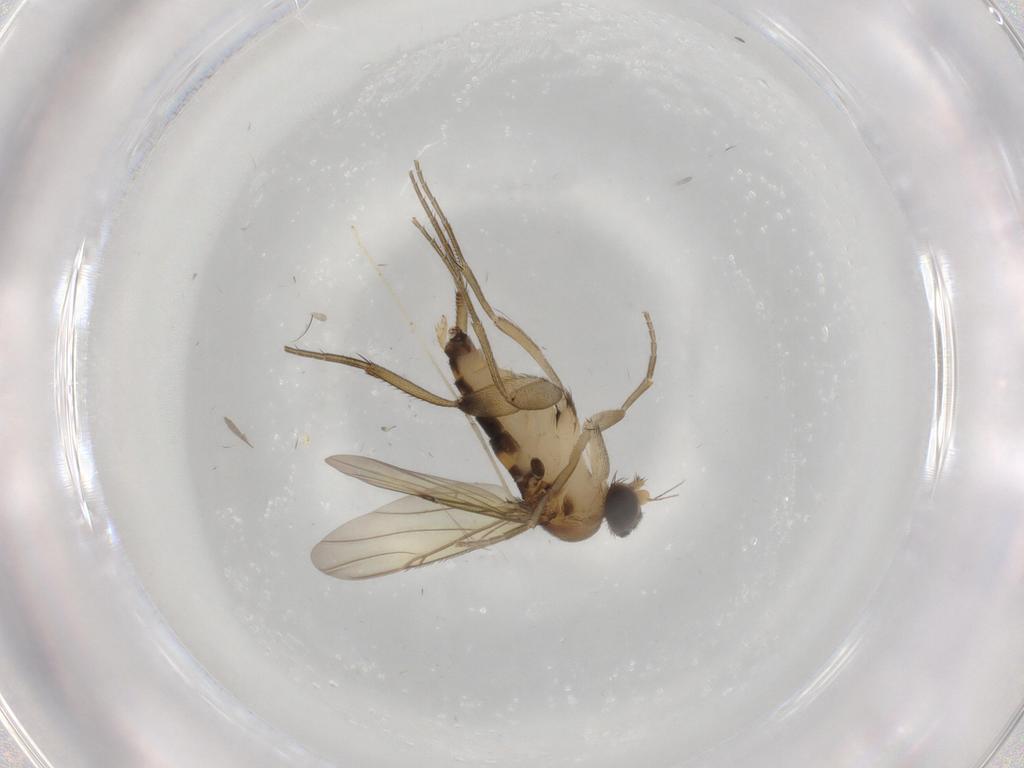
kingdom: Animalia
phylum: Arthropoda
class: Insecta
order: Diptera
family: Phoridae
